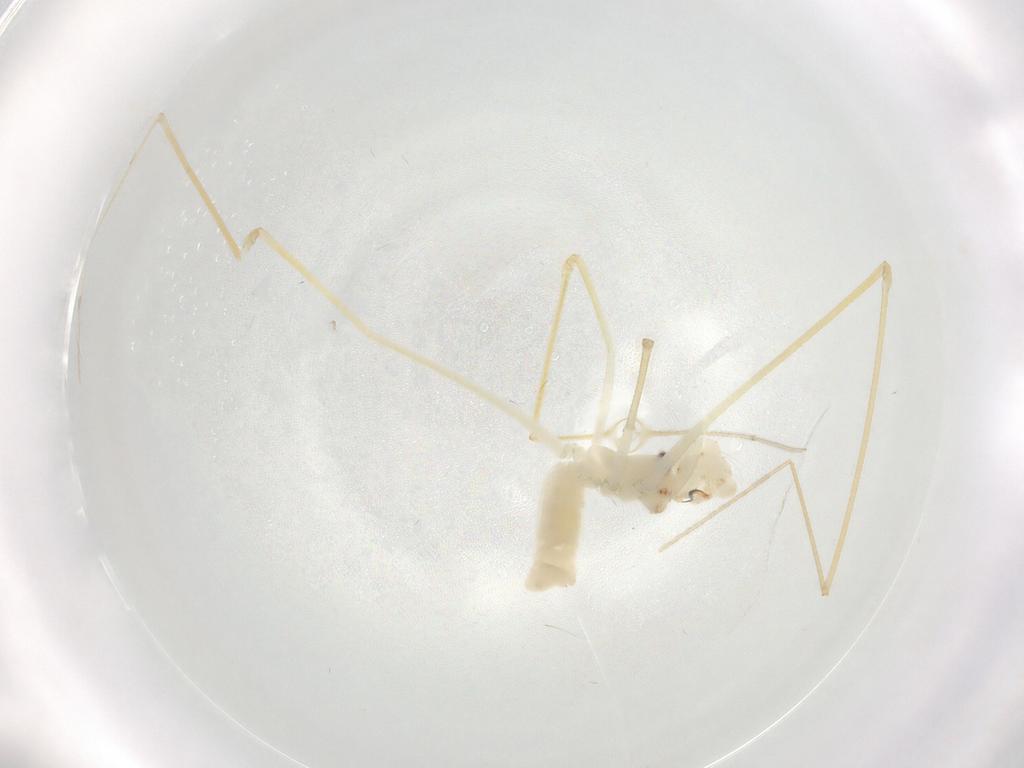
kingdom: Animalia
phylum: Arthropoda
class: Arachnida
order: Araneae
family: Pholcidae
